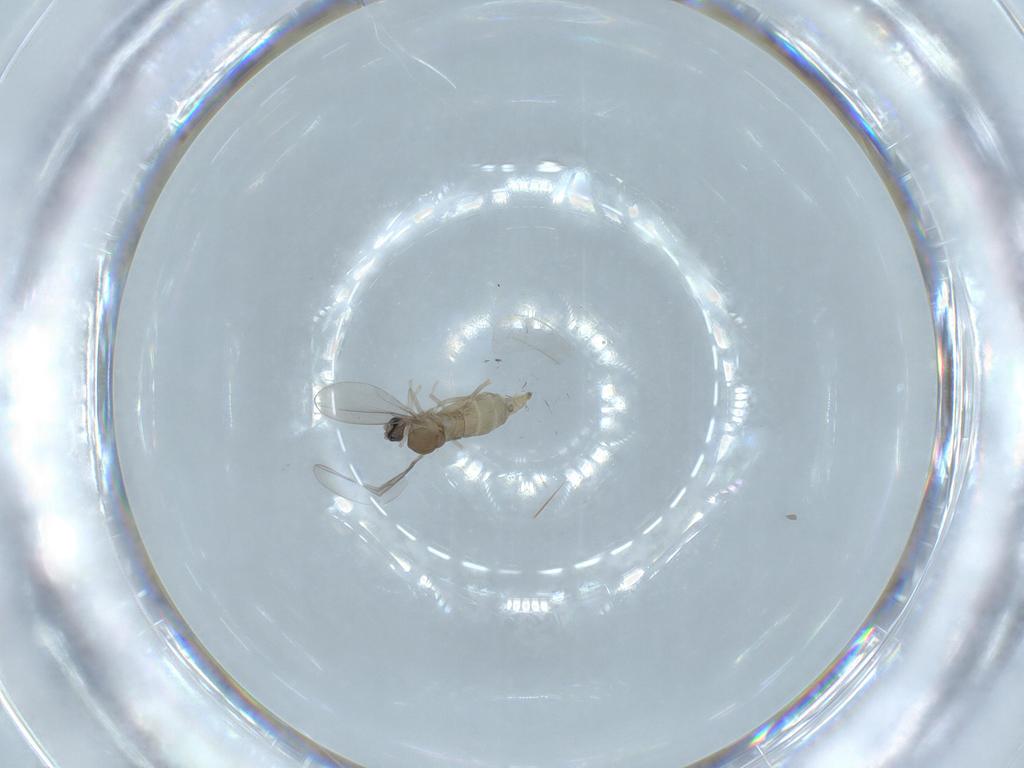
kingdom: Animalia
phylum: Arthropoda
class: Insecta
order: Diptera
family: Cecidomyiidae
